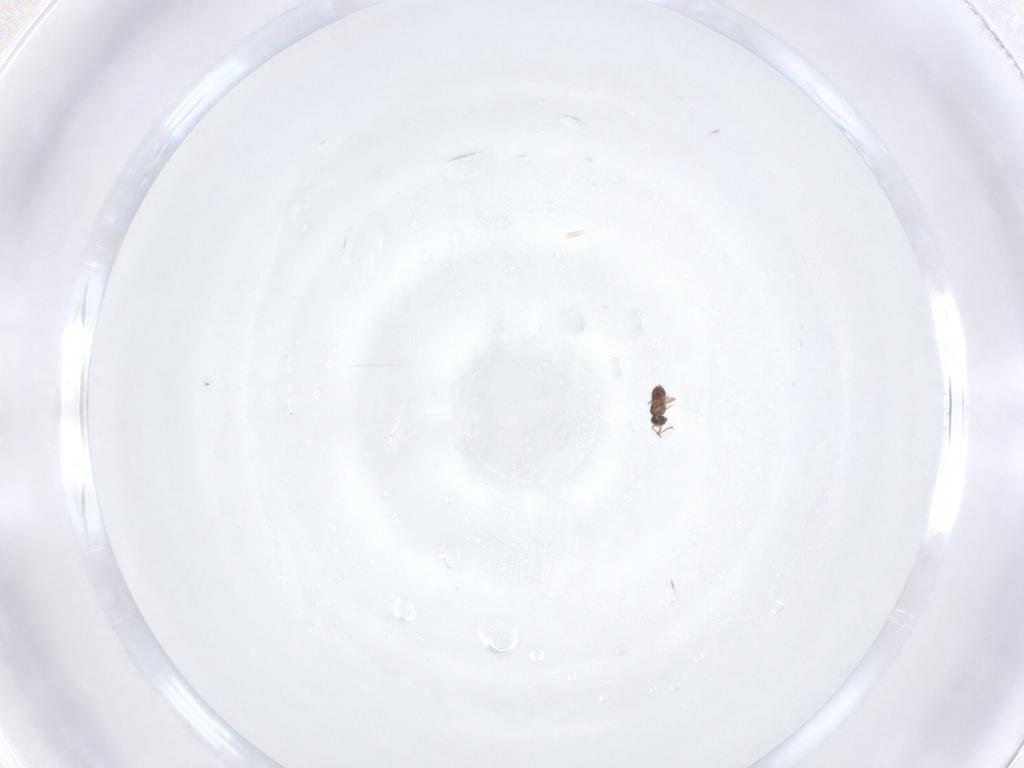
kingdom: Animalia
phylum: Arthropoda
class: Insecta
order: Hymenoptera
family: Mymaridae
